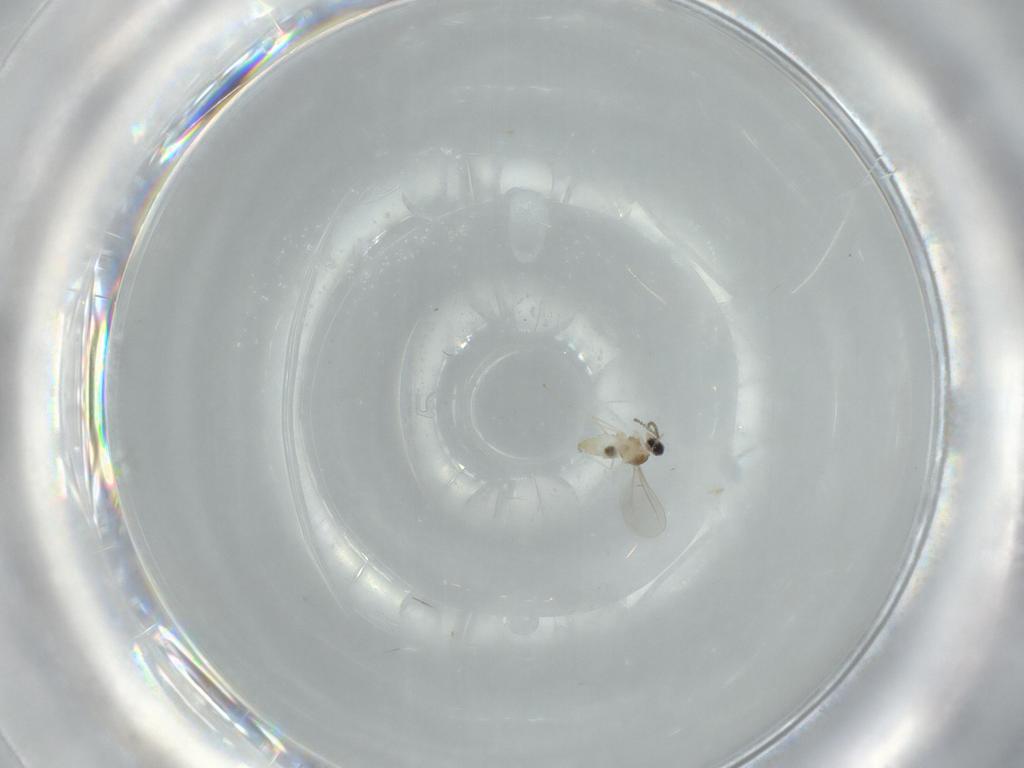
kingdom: Animalia
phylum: Arthropoda
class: Insecta
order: Diptera
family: Cecidomyiidae
